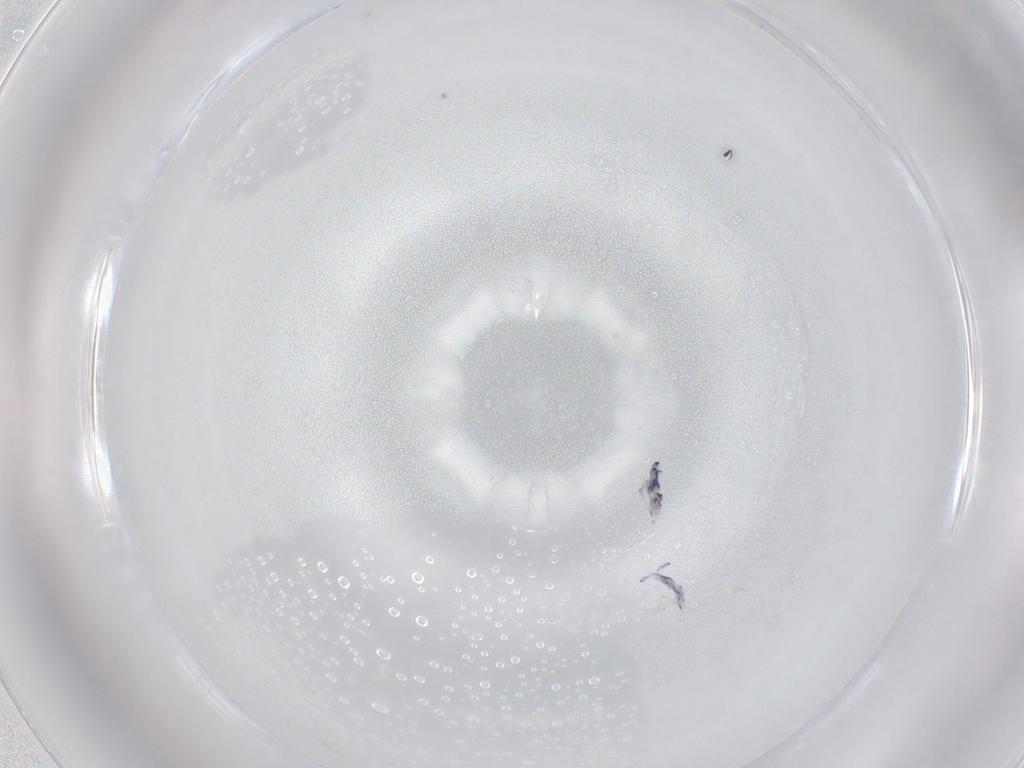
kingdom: Animalia
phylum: Arthropoda
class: Collembola
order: Entomobryomorpha
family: Entomobryidae
